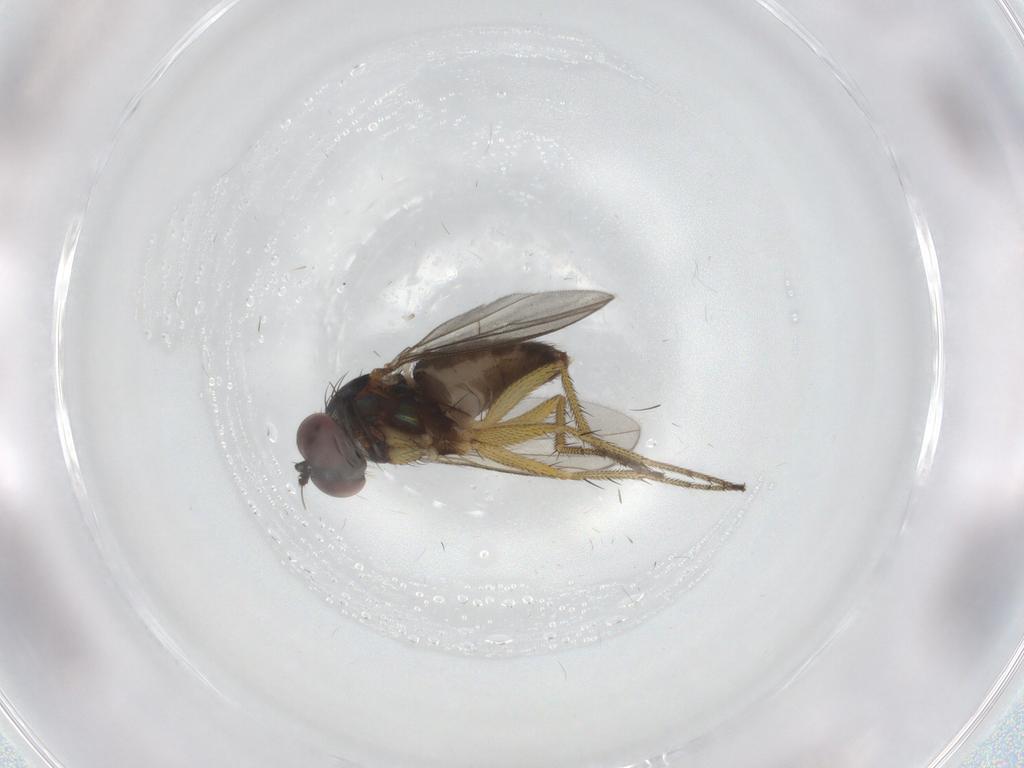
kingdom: Animalia
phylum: Arthropoda
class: Insecta
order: Diptera
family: Dolichopodidae
